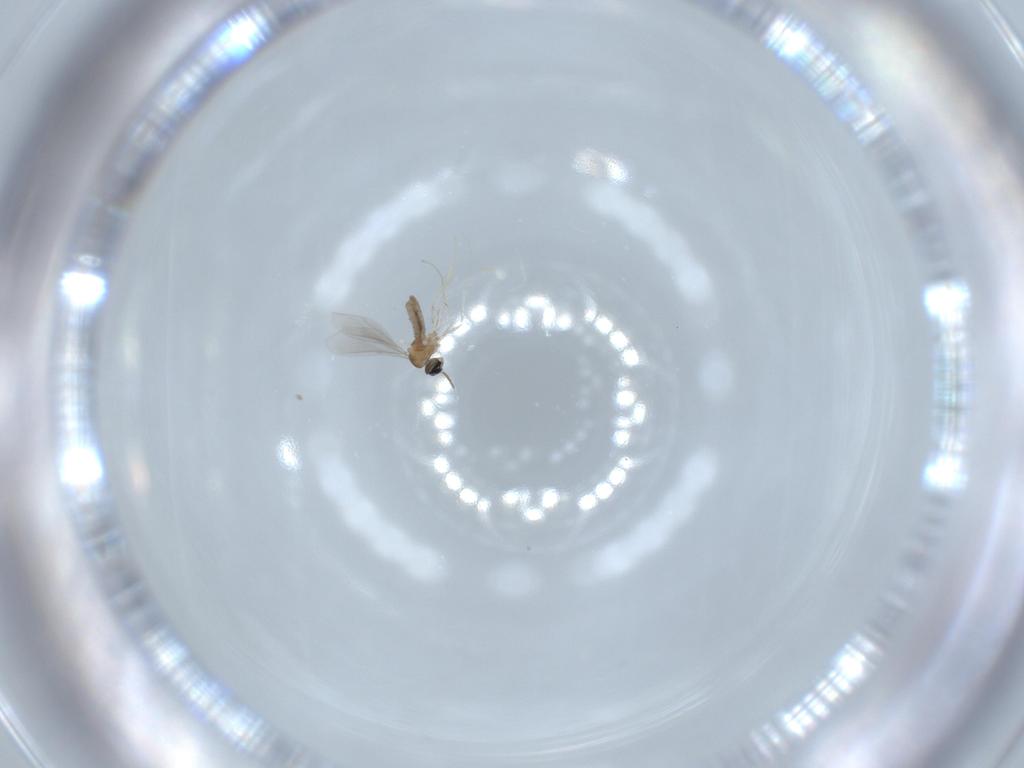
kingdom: Animalia
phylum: Arthropoda
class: Insecta
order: Diptera
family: Cecidomyiidae
